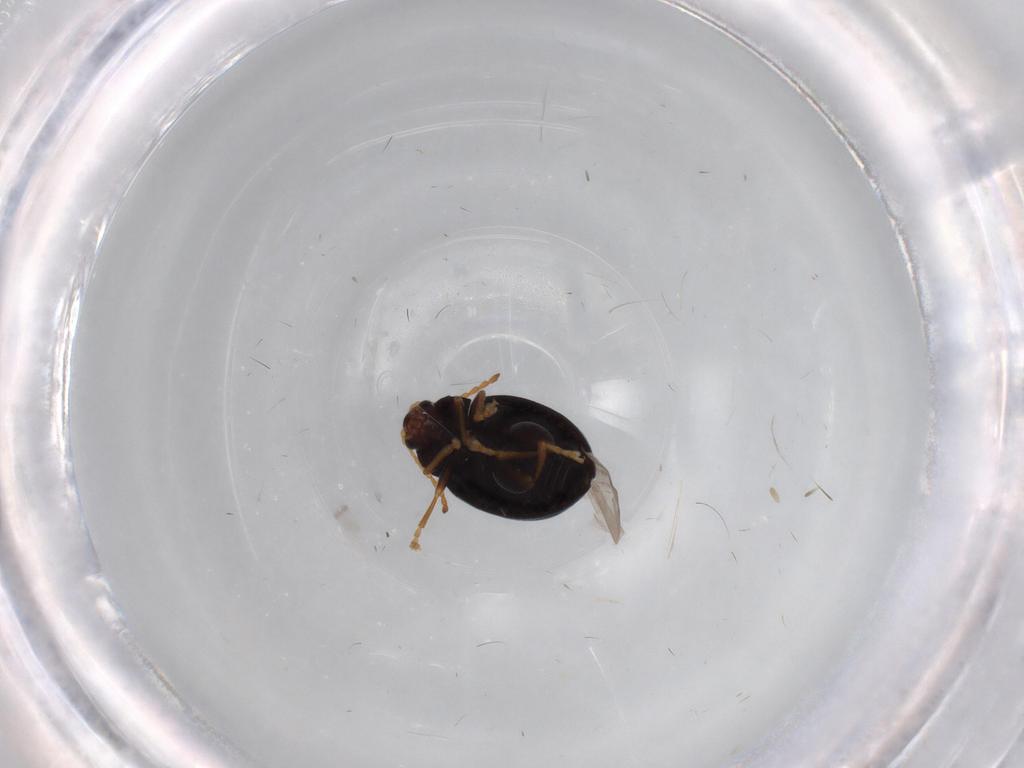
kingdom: Animalia
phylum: Arthropoda
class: Insecta
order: Coleoptera
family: Chrysomelidae
